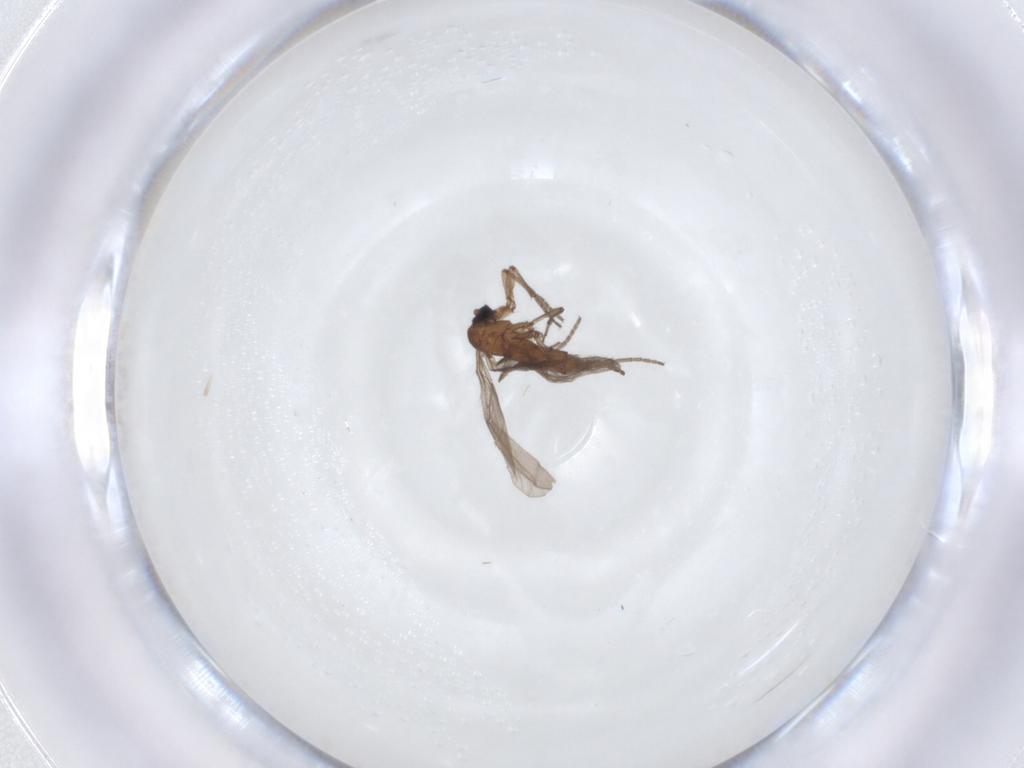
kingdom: Animalia
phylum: Arthropoda
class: Insecta
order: Diptera
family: Sciaridae
